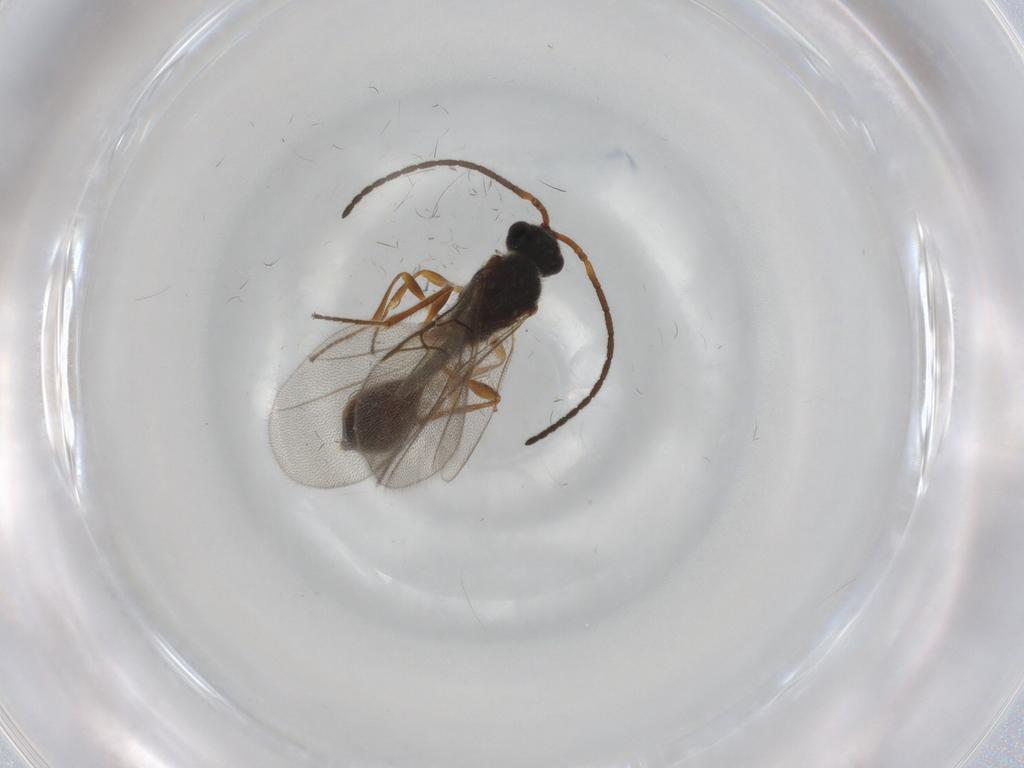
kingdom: Animalia
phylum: Arthropoda
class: Insecta
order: Hymenoptera
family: Diapriidae
